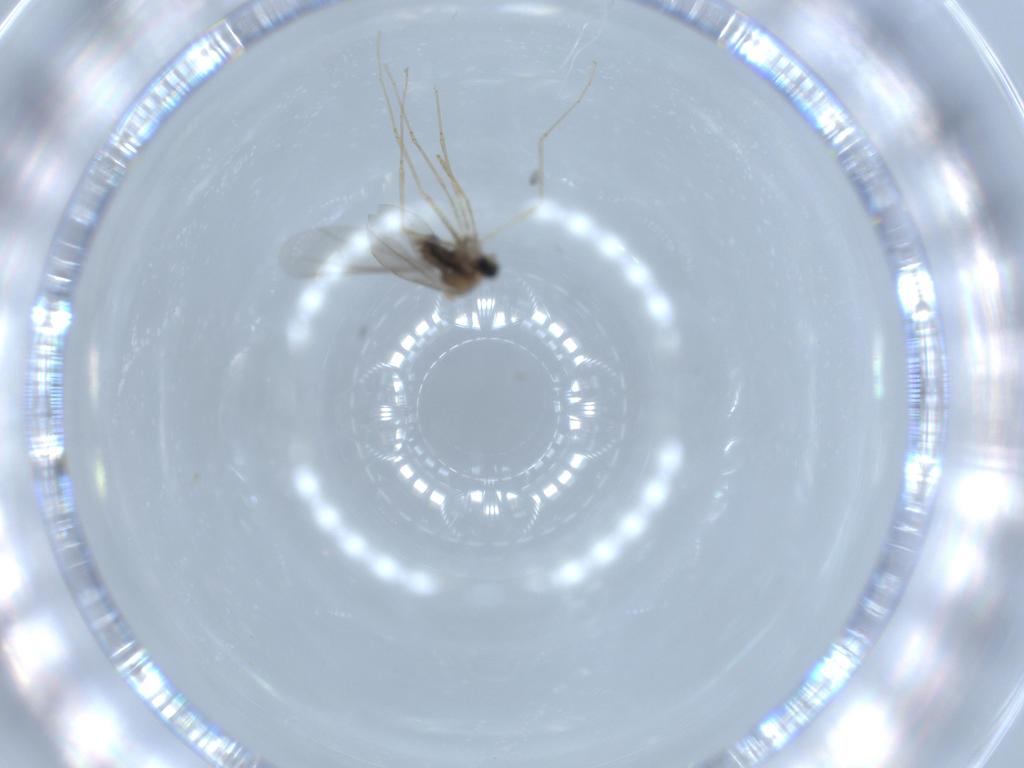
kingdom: Animalia
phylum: Arthropoda
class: Insecta
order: Diptera
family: Cecidomyiidae
